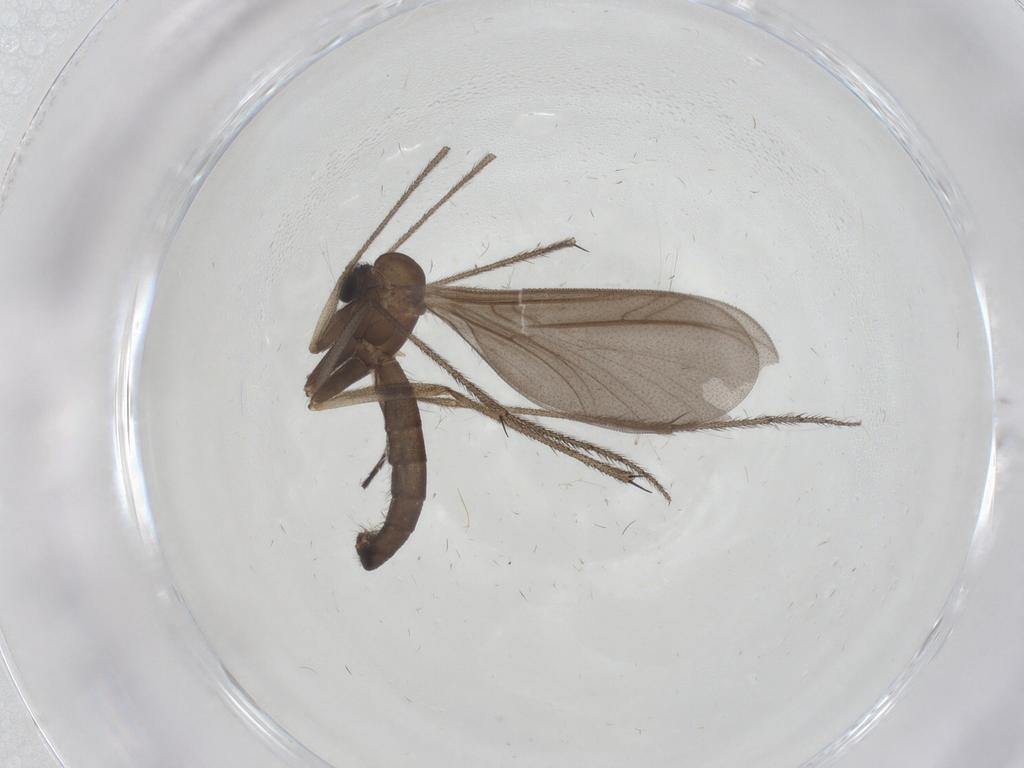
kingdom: Animalia
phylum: Arthropoda
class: Insecta
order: Diptera
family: Ditomyiidae
